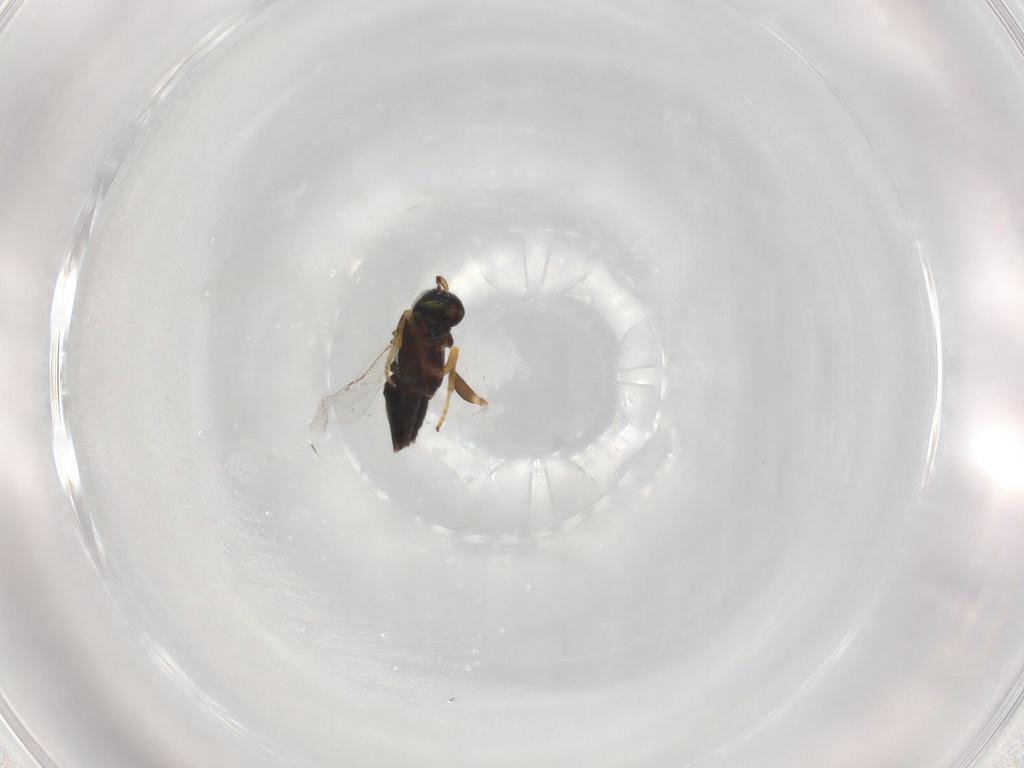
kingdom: Animalia
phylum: Arthropoda
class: Insecta
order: Hymenoptera
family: Encyrtidae
